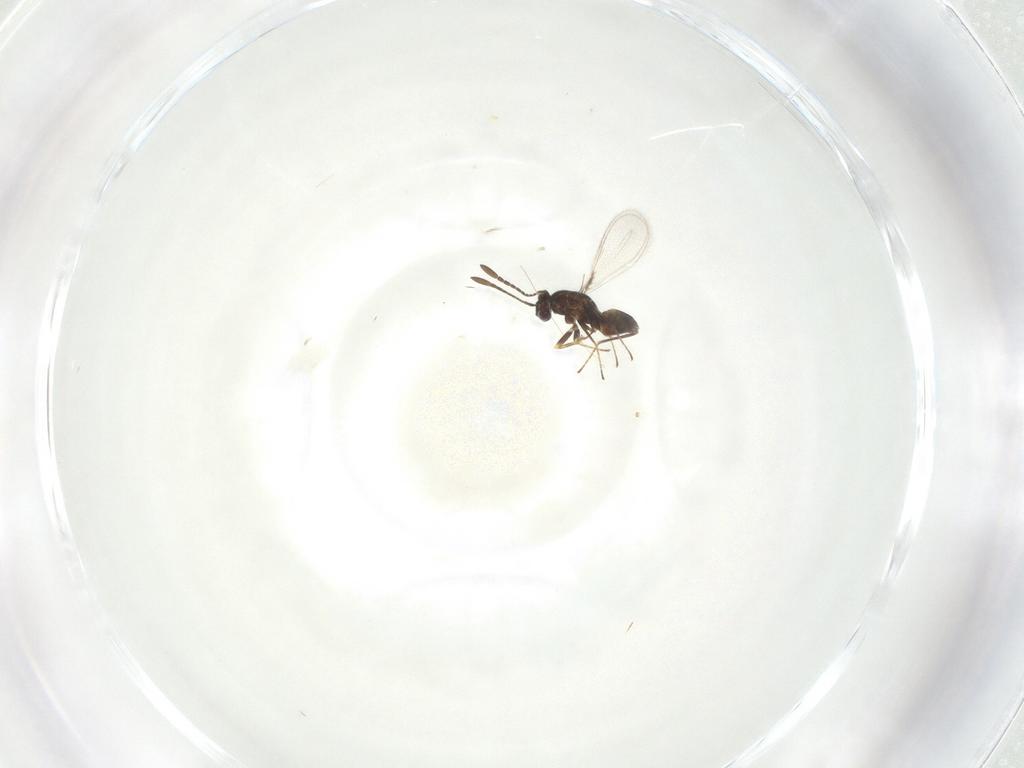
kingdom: Animalia
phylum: Arthropoda
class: Insecta
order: Hymenoptera
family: Mymaridae
